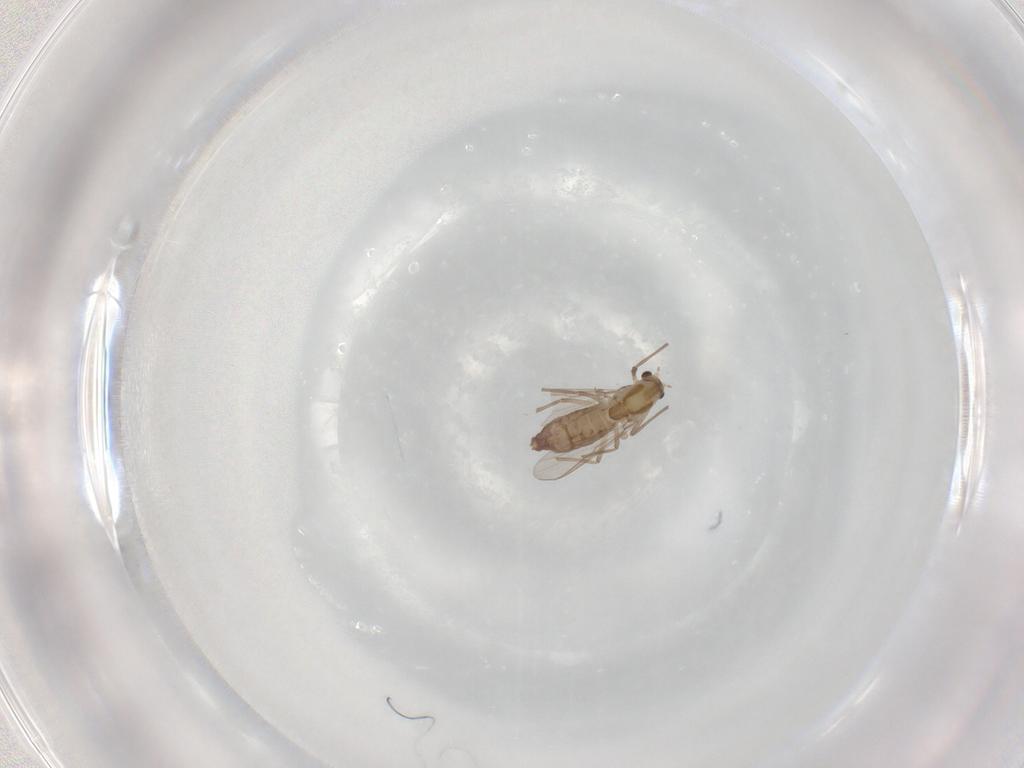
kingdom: Animalia
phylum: Arthropoda
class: Insecta
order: Diptera
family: Chironomidae
